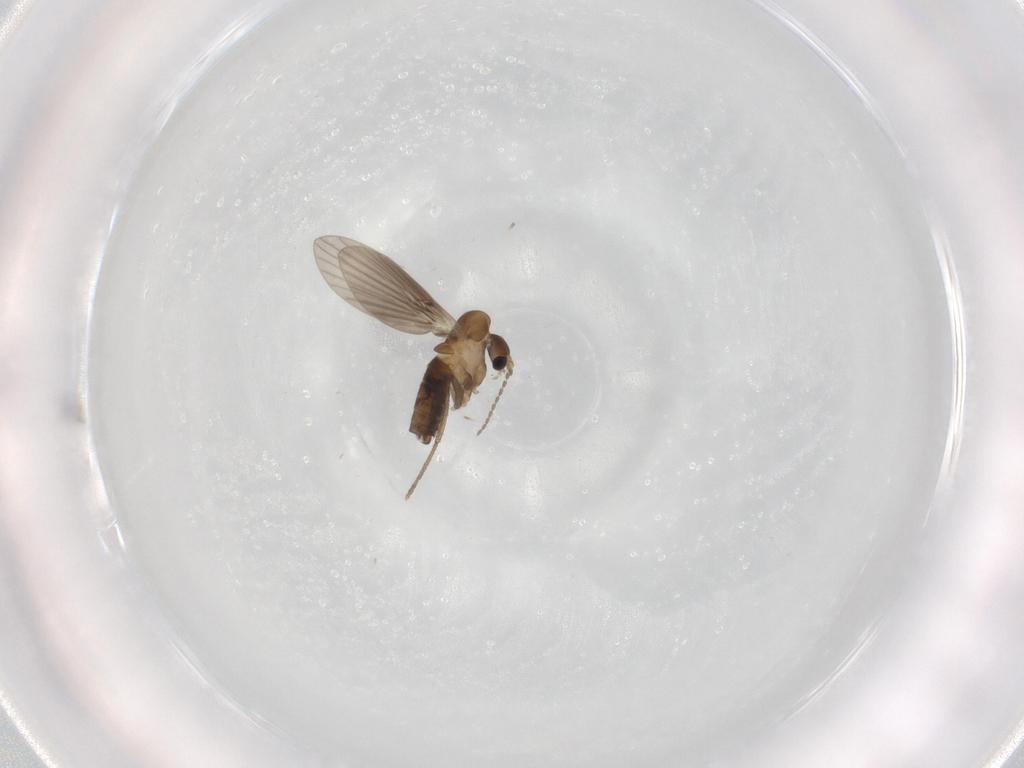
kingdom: Animalia
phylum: Arthropoda
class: Insecta
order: Diptera
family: Psychodidae
